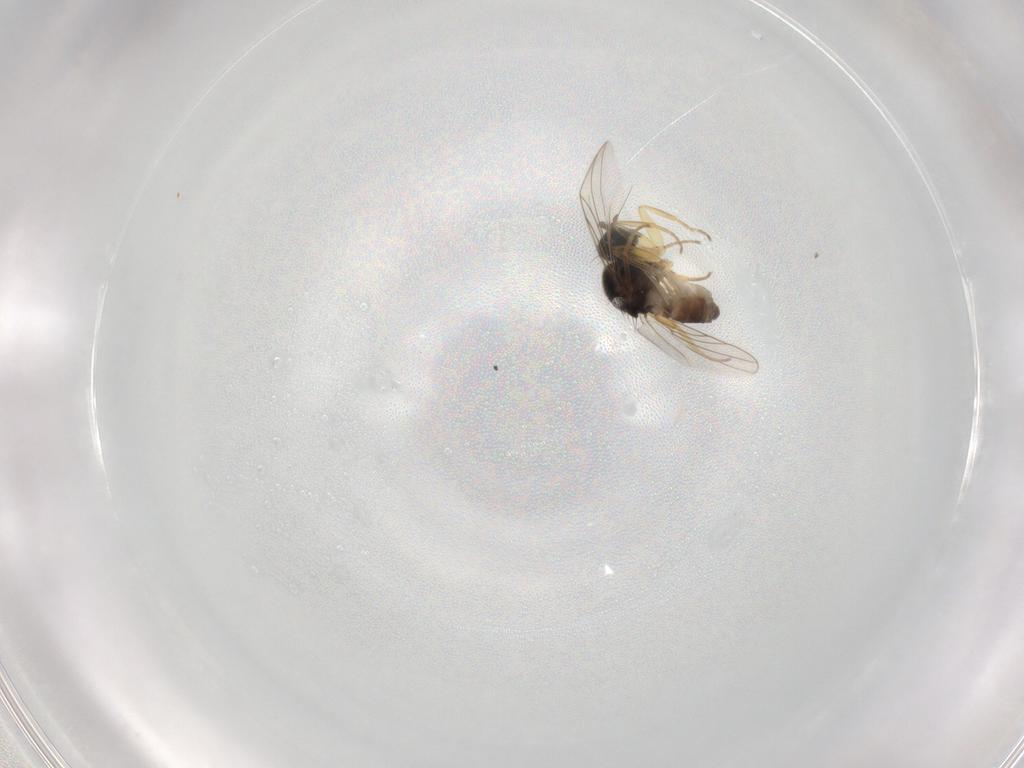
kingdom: Animalia
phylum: Arthropoda
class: Insecta
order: Diptera
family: Hybotidae
